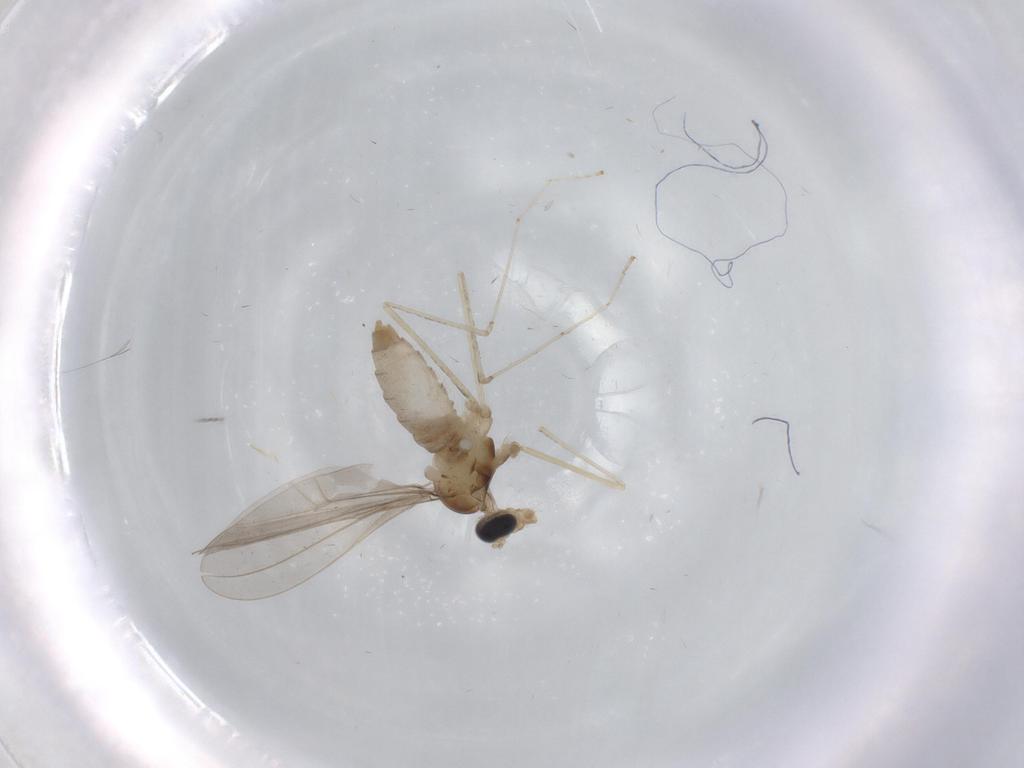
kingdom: Animalia
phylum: Arthropoda
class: Insecta
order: Diptera
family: Cecidomyiidae
